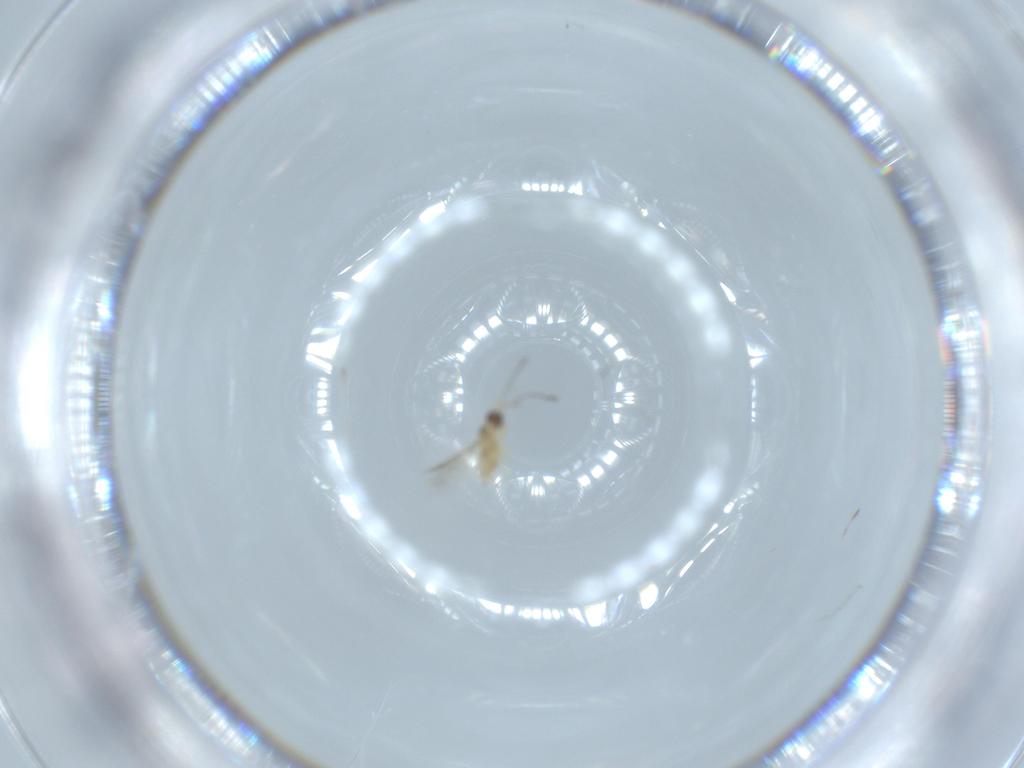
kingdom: Animalia
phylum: Arthropoda
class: Insecta
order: Hymenoptera
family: Mymaridae
